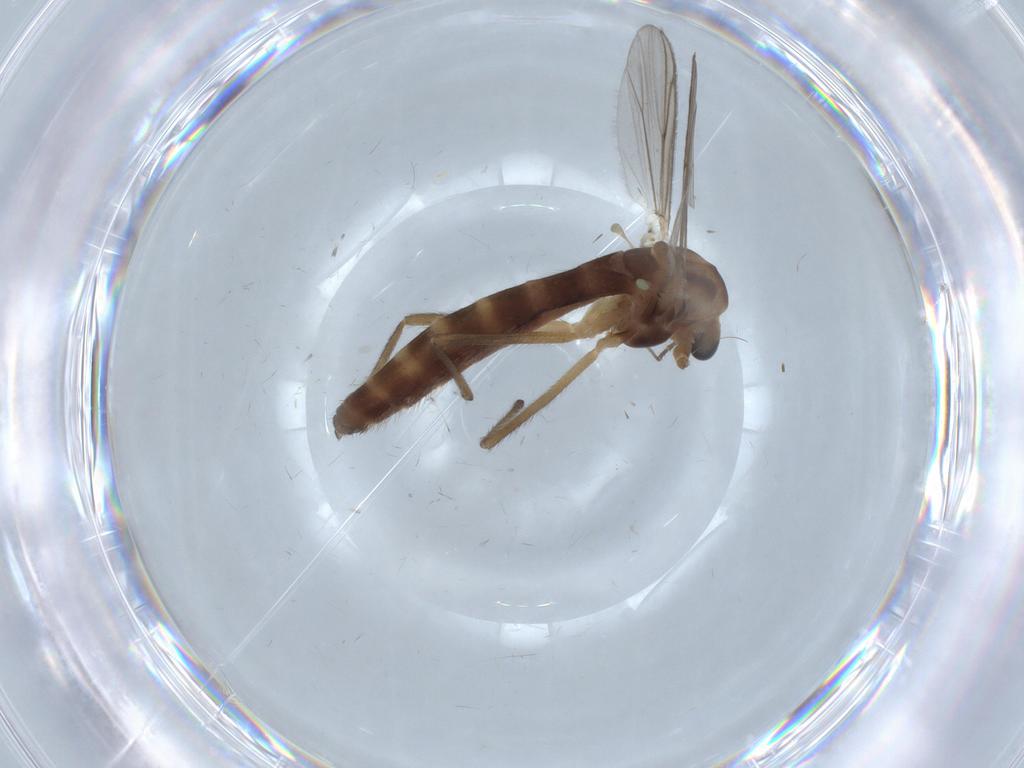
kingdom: Animalia
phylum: Arthropoda
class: Insecta
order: Diptera
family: Chironomidae
